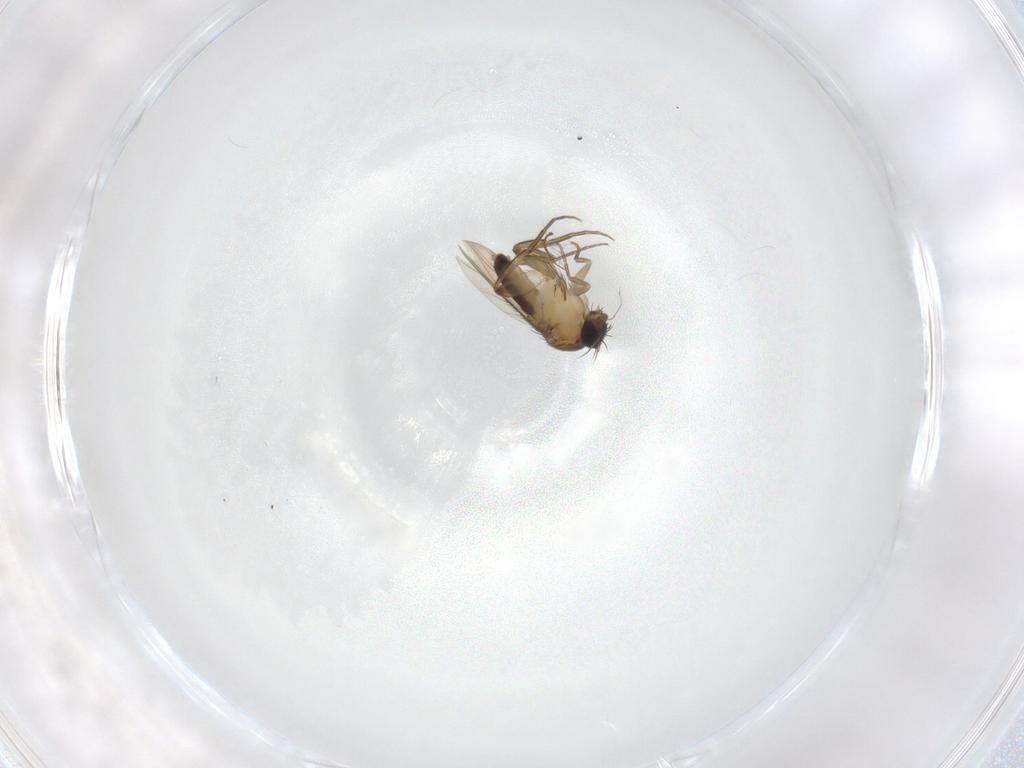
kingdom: Animalia
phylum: Arthropoda
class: Insecta
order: Diptera
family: Phoridae
